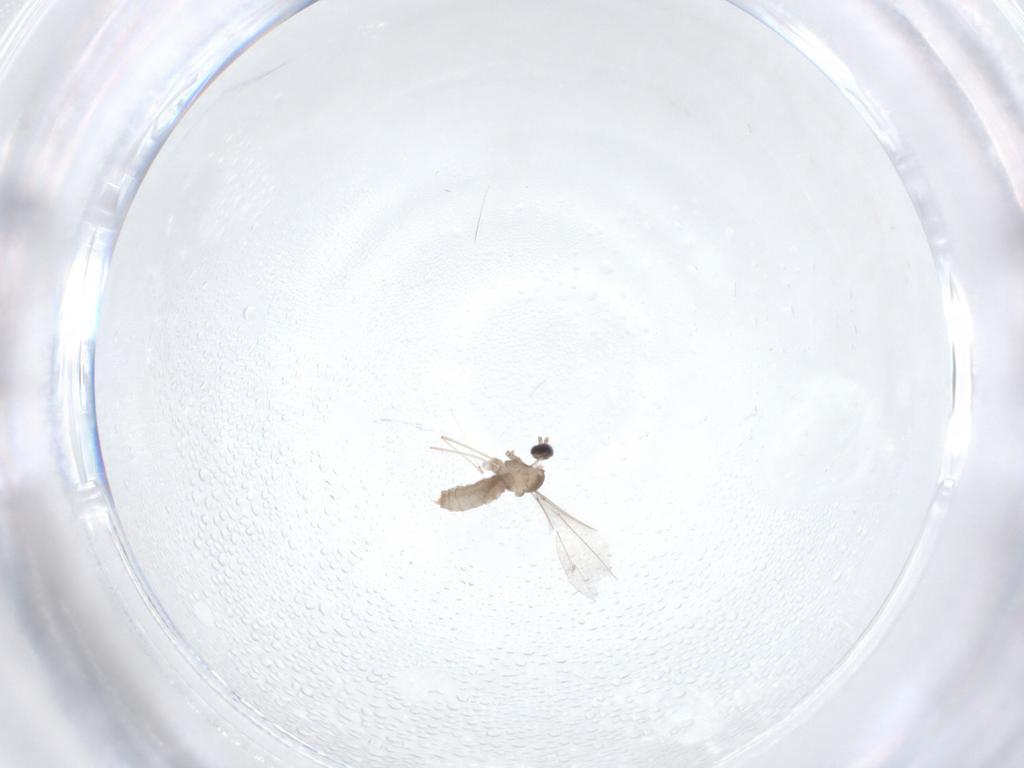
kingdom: Animalia
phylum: Arthropoda
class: Insecta
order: Diptera
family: Cecidomyiidae
